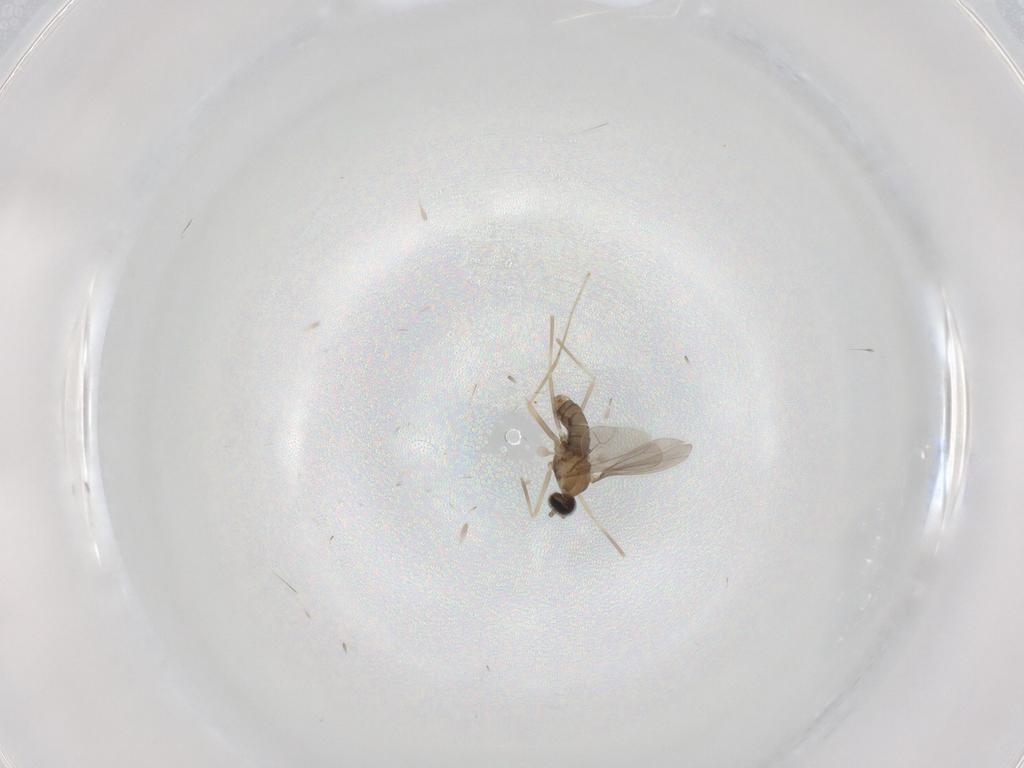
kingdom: Animalia
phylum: Arthropoda
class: Insecta
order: Diptera
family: Cecidomyiidae
